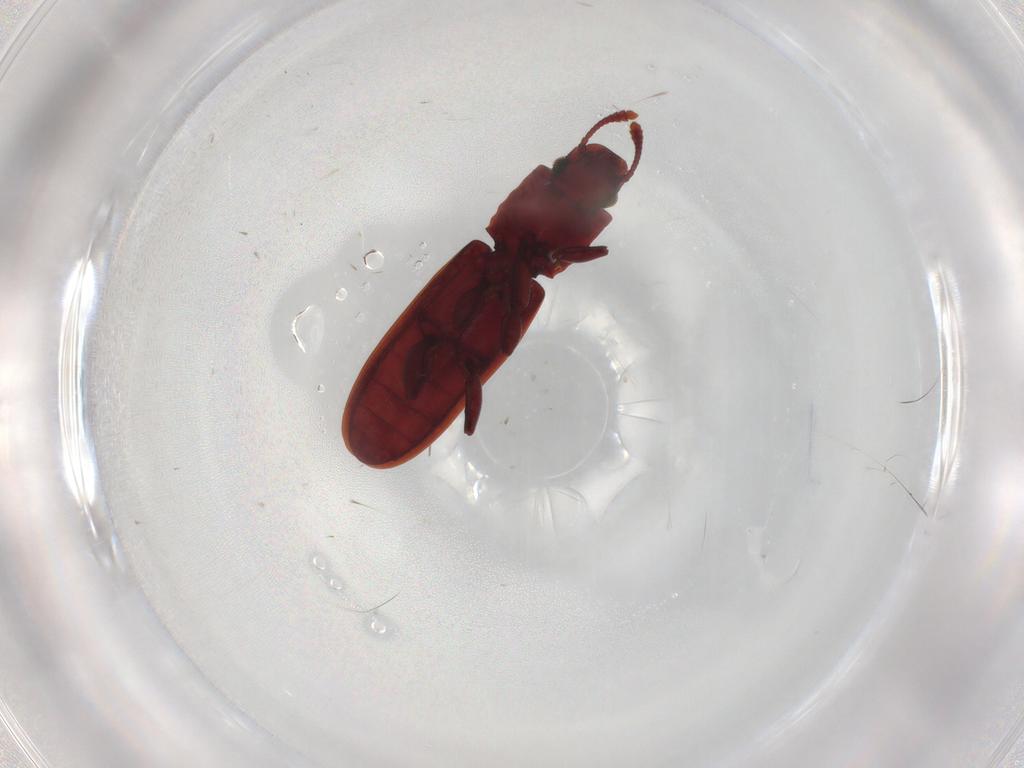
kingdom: Animalia
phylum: Arthropoda
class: Insecta
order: Coleoptera
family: Silvanidae
